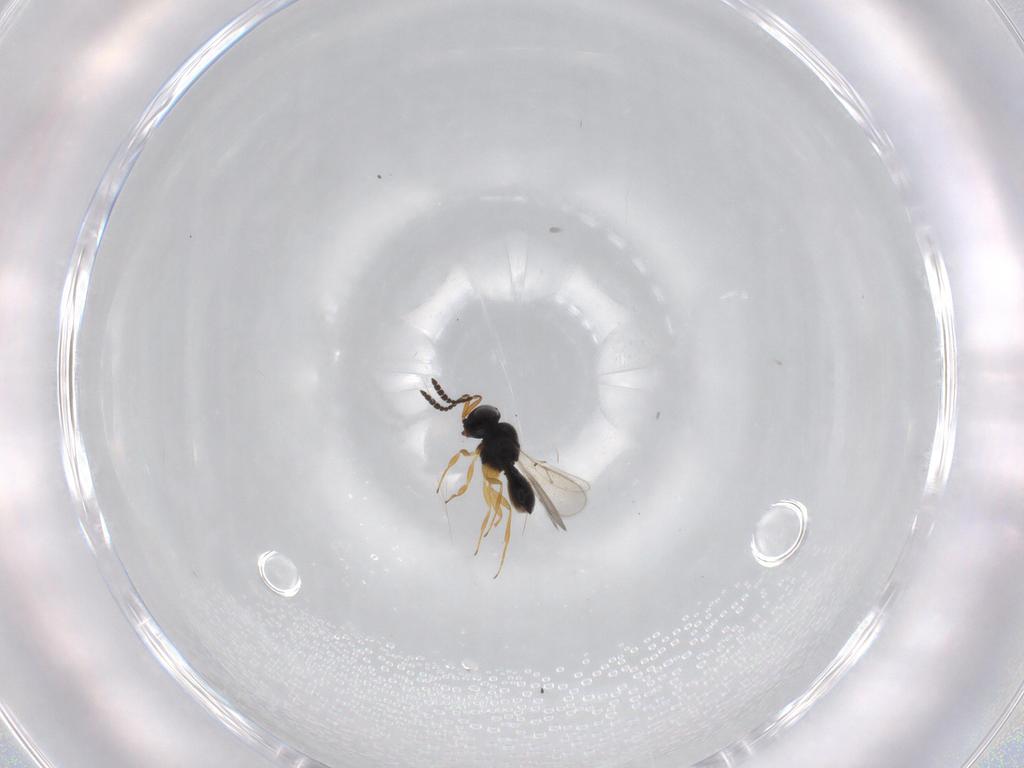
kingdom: Animalia
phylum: Arthropoda
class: Insecta
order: Hymenoptera
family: Scelionidae
